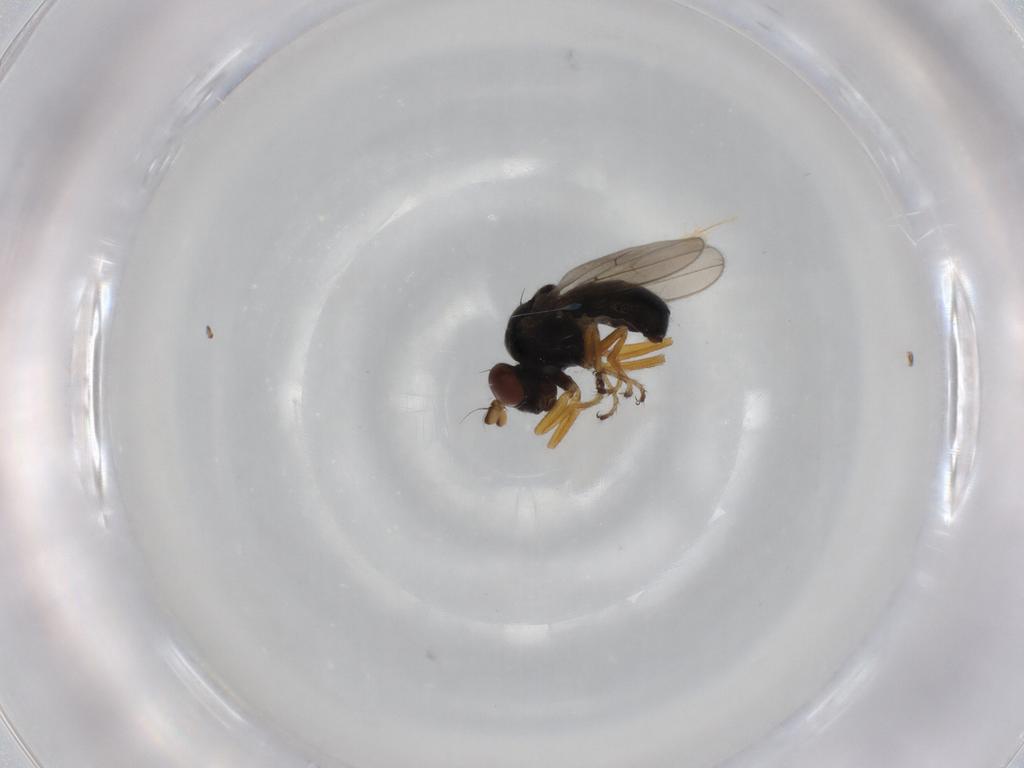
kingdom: Animalia
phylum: Arthropoda
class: Insecta
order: Diptera
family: Ephydridae
